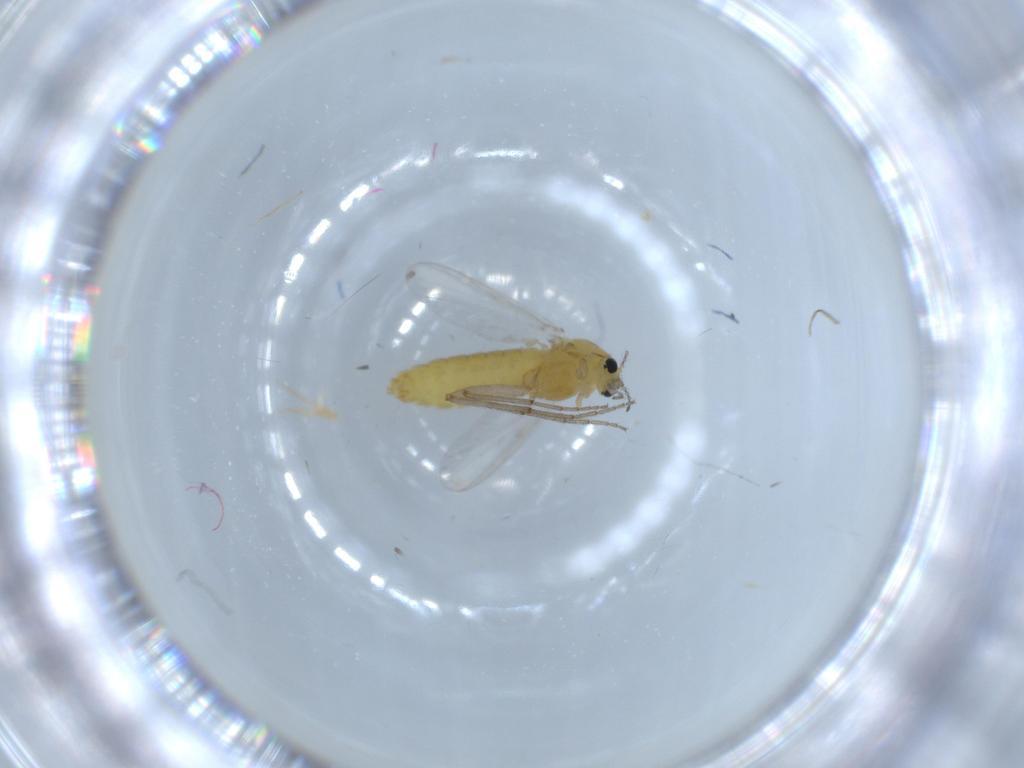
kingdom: Animalia
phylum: Arthropoda
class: Insecta
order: Diptera
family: Chironomidae
